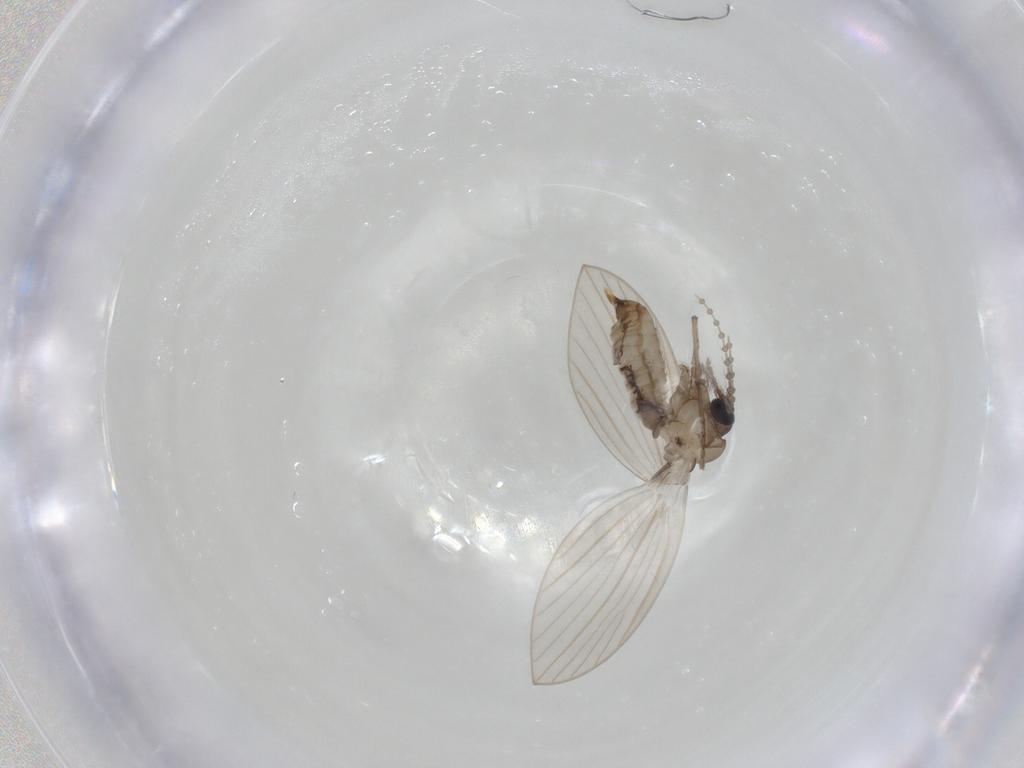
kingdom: Animalia
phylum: Arthropoda
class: Insecta
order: Diptera
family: Psychodidae
